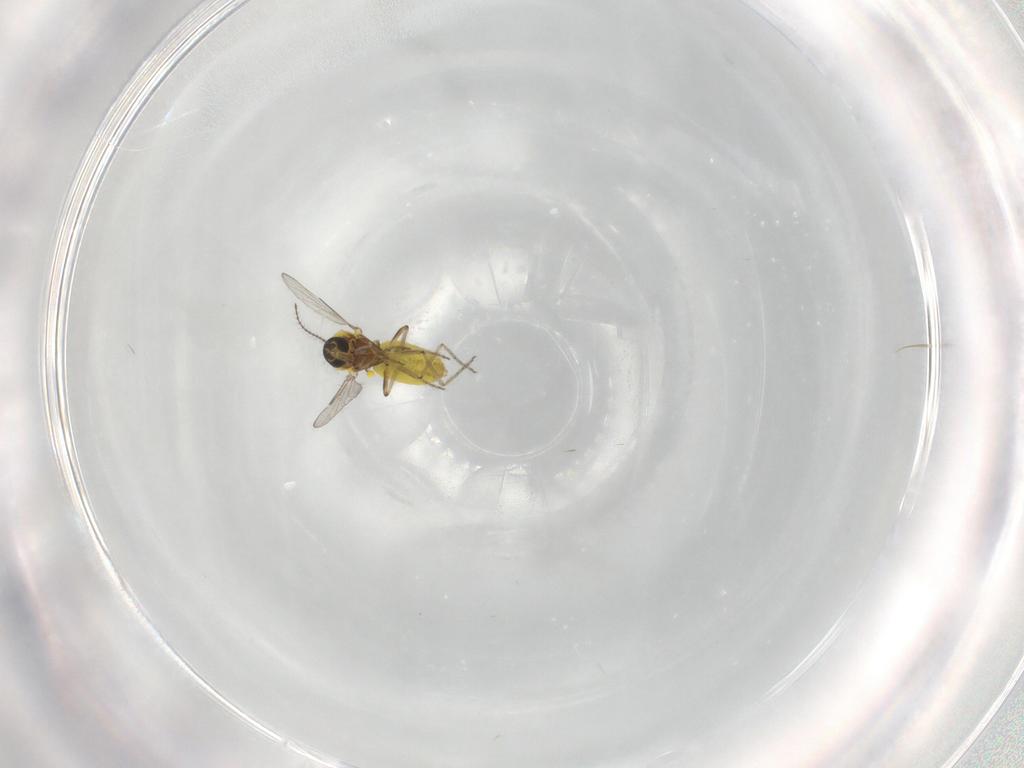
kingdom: Animalia
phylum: Arthropoda
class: Insecta
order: Diptera
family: Ceratopogonidae
